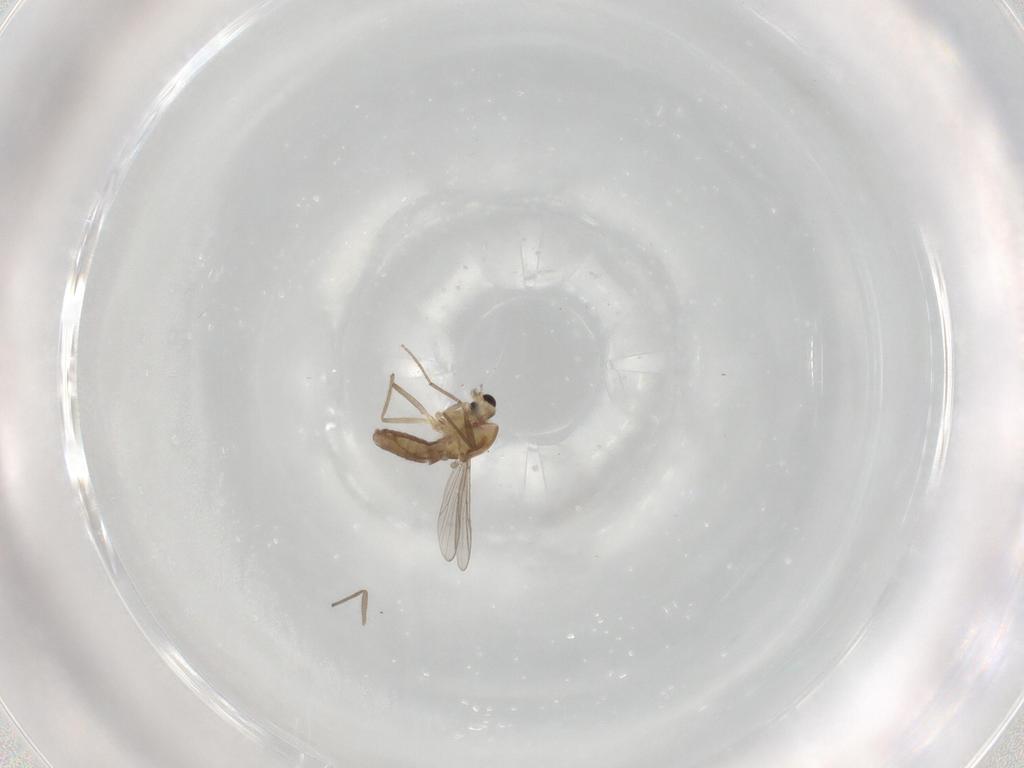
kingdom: Animalia
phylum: Arthropoda
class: Insecta
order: Diptera
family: Chironomidae
